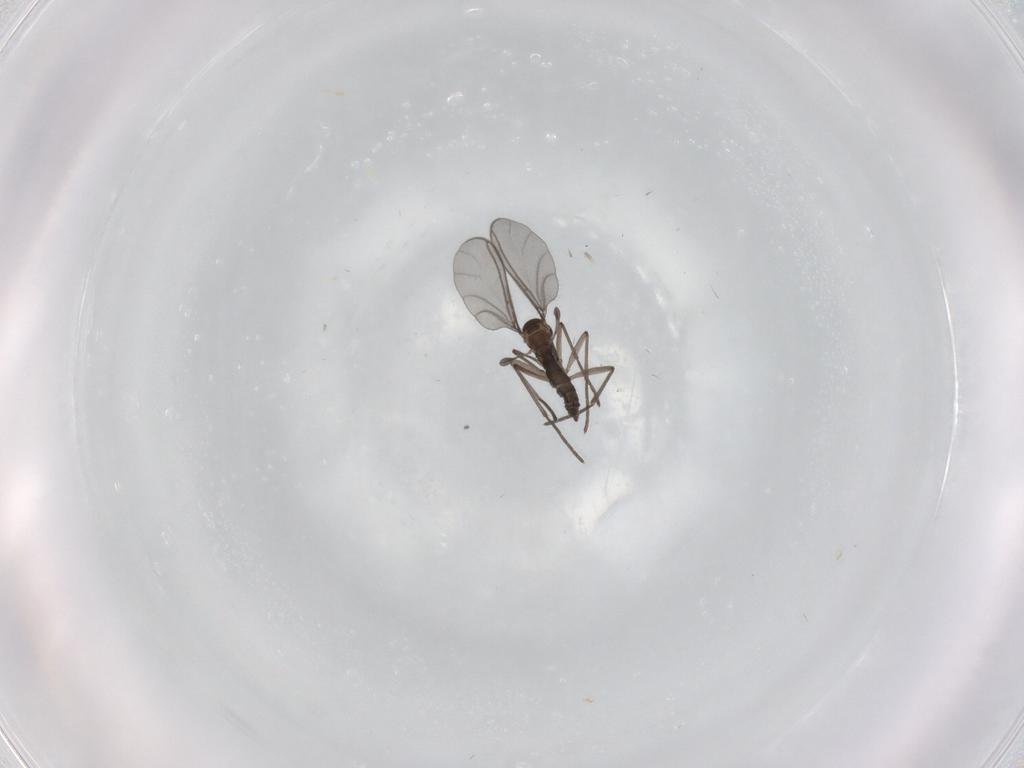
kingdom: Animalia
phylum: Arthropoda
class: Insecta
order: Diptera
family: Sciaridae
